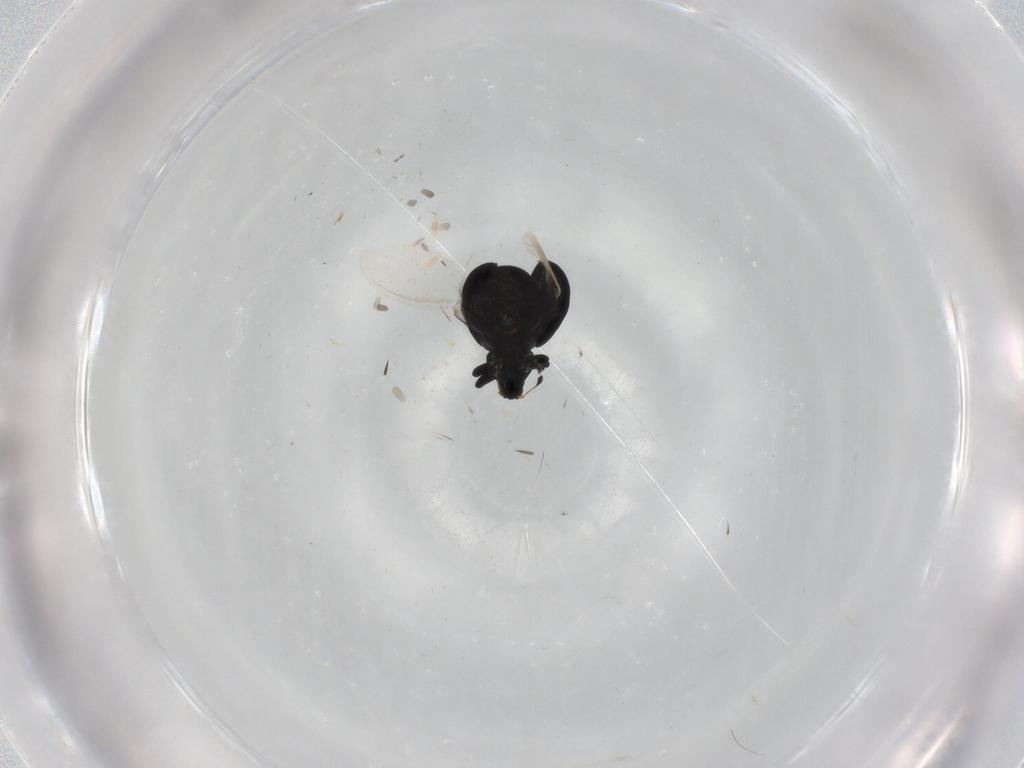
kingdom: Animalia
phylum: Arthropoda
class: Insecta
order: Coleoptera
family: Curculionidae
